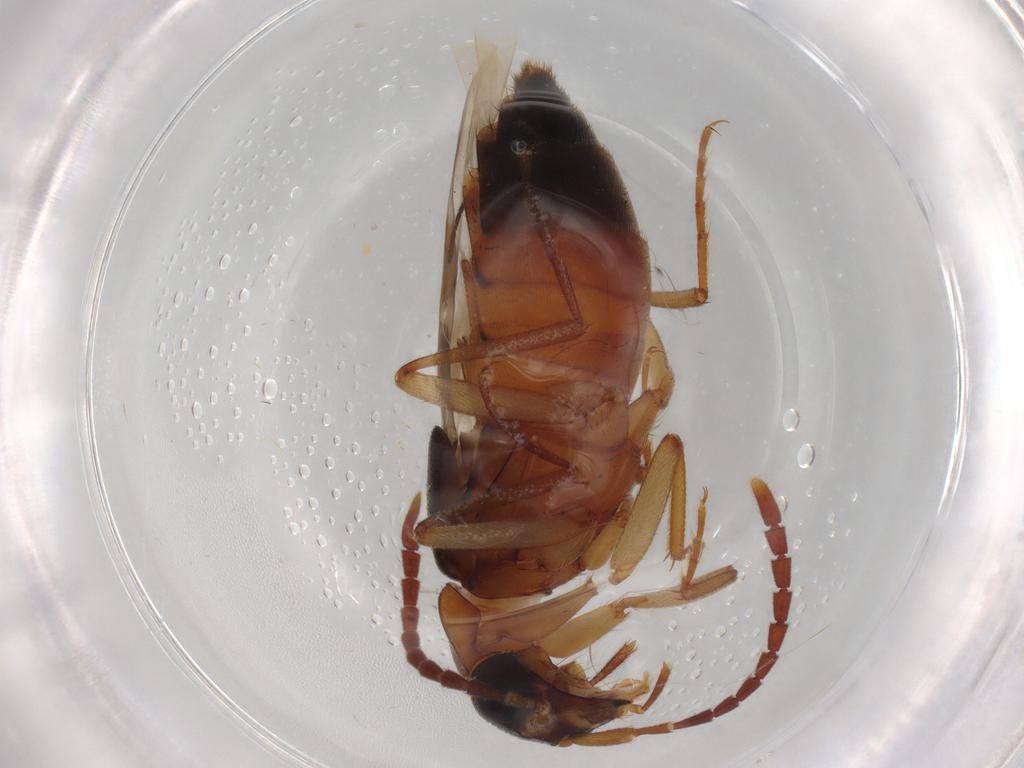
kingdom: Animalia
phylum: Arthropoda
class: Insecta
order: Coleoptera
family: Staphylinidae
